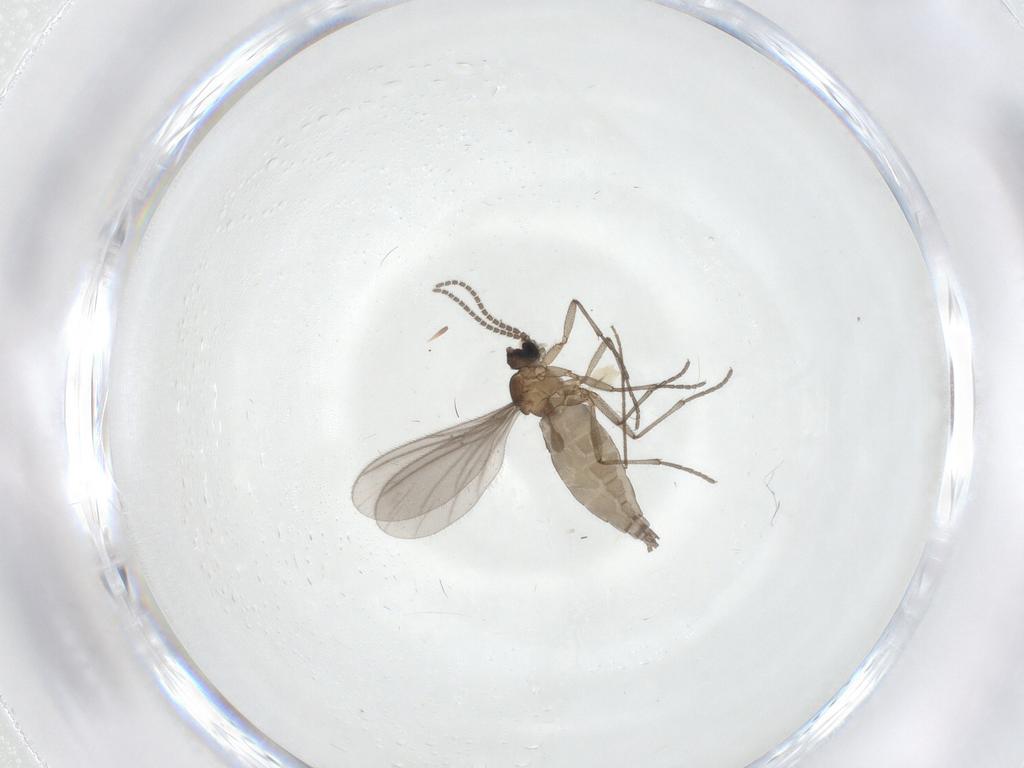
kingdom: Animalia
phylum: Arthropoda
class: Insecta
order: Diptera
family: Sciaridae
